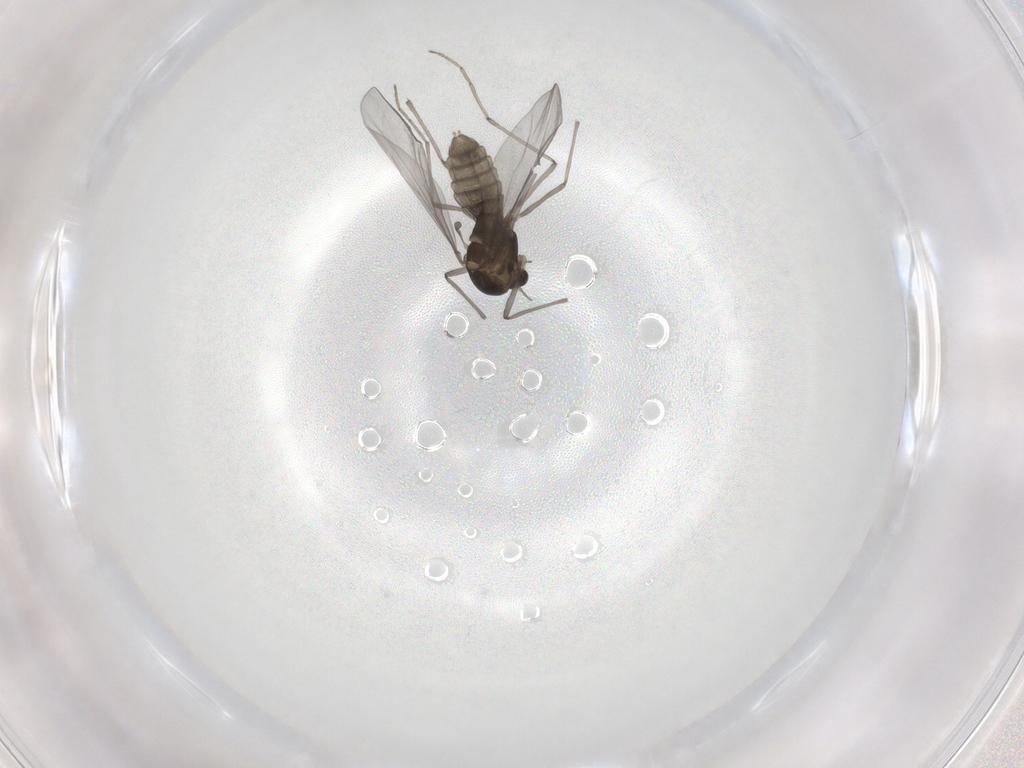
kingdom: Animalia
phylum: Arthropoda
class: Insecta
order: Diptera
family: Chironomidae
